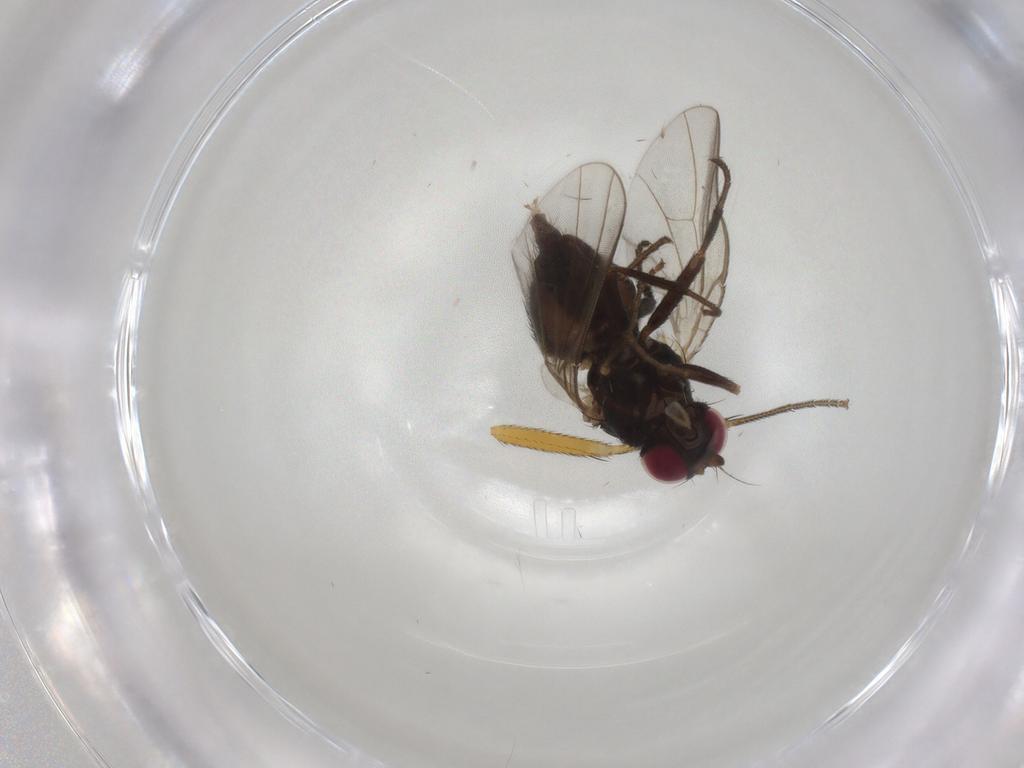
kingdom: Animalia
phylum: Arthropoda
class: Insecta
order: Diptera
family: Muscidae
